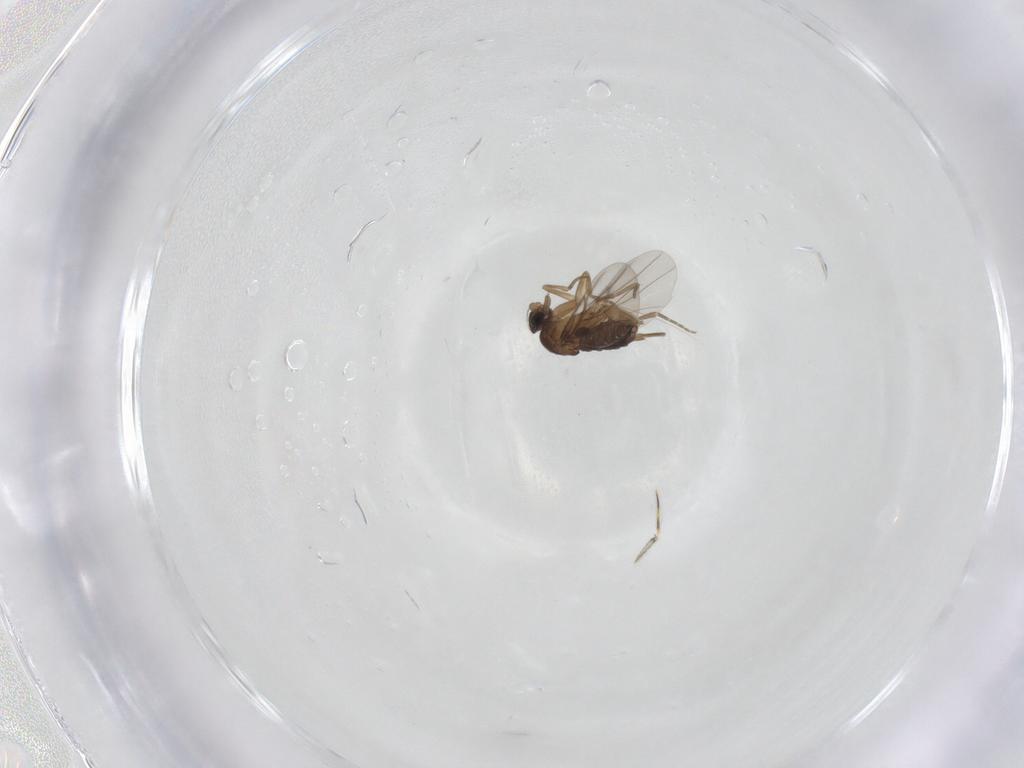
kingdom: Animalia
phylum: Arthropoda
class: Insecta
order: Diptera
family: Phoridae
